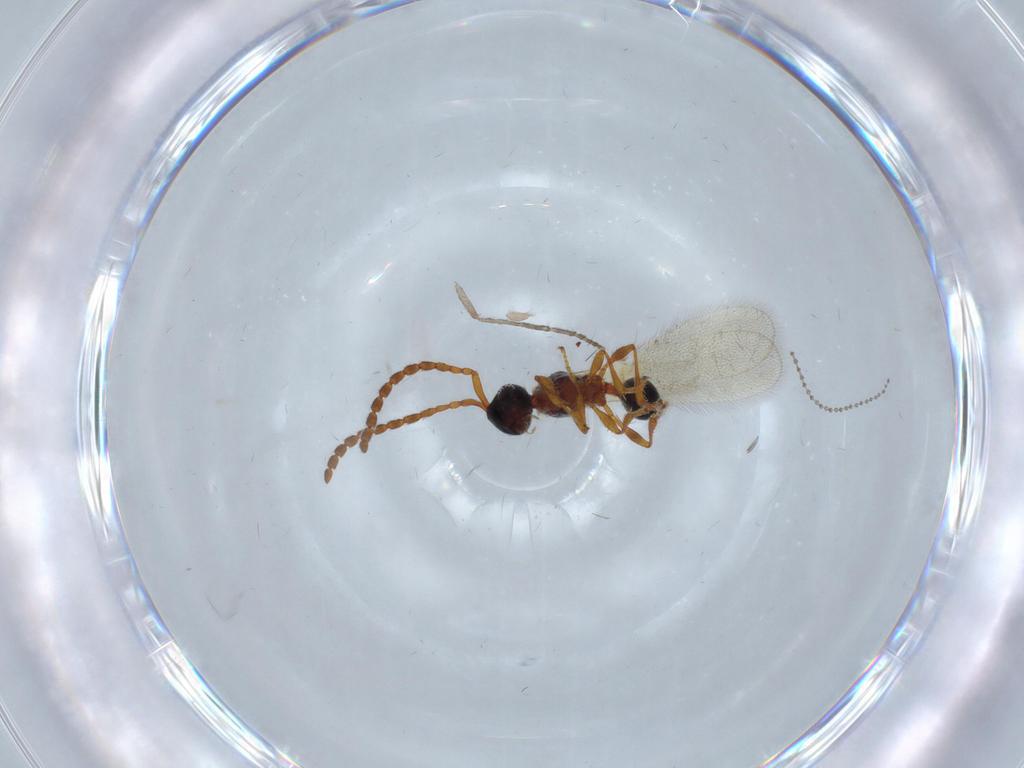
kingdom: Animalia
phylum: Arthropoda
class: Insecta
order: Hymenoptera
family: Diapriidae
